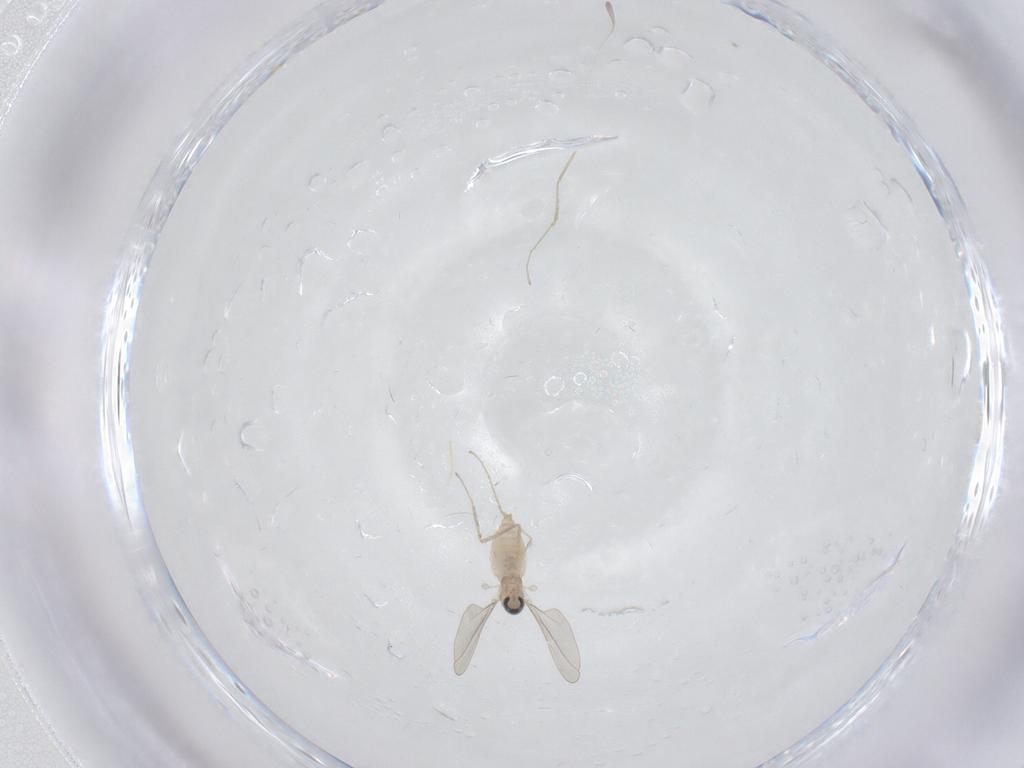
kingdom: Animalia
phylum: Arthropoda
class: Insecta
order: Diptera
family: Cecidomyiidae
